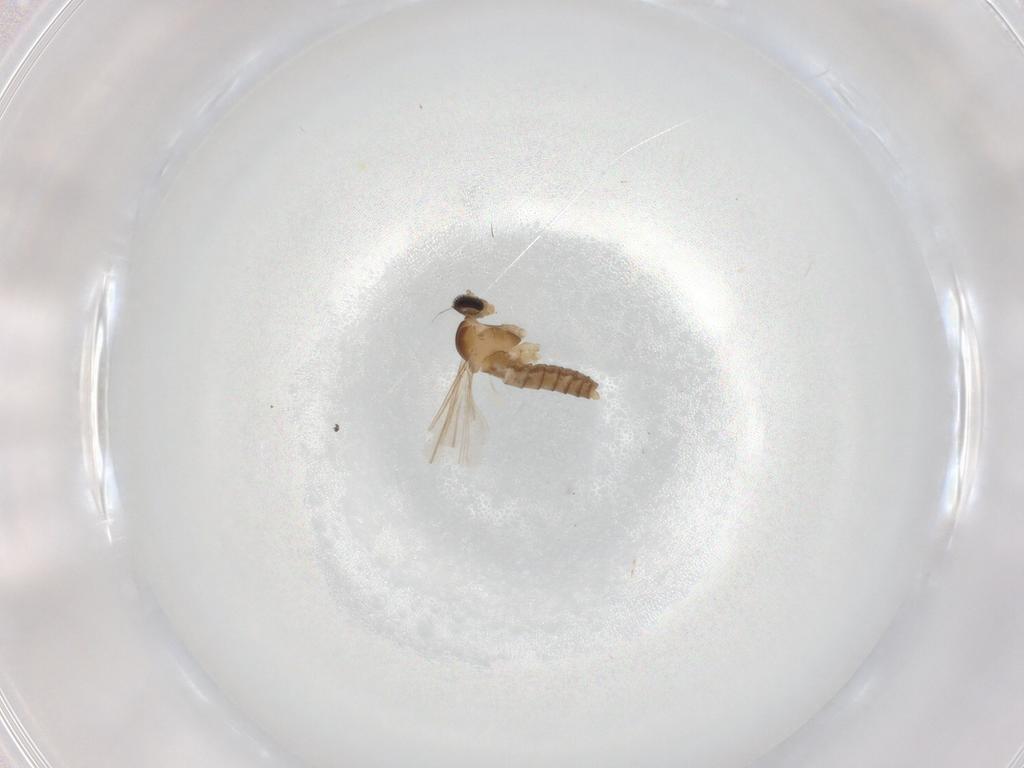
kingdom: Animalia
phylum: Arthropoda
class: Insecta
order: Diptera
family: Cecidomyiidae
